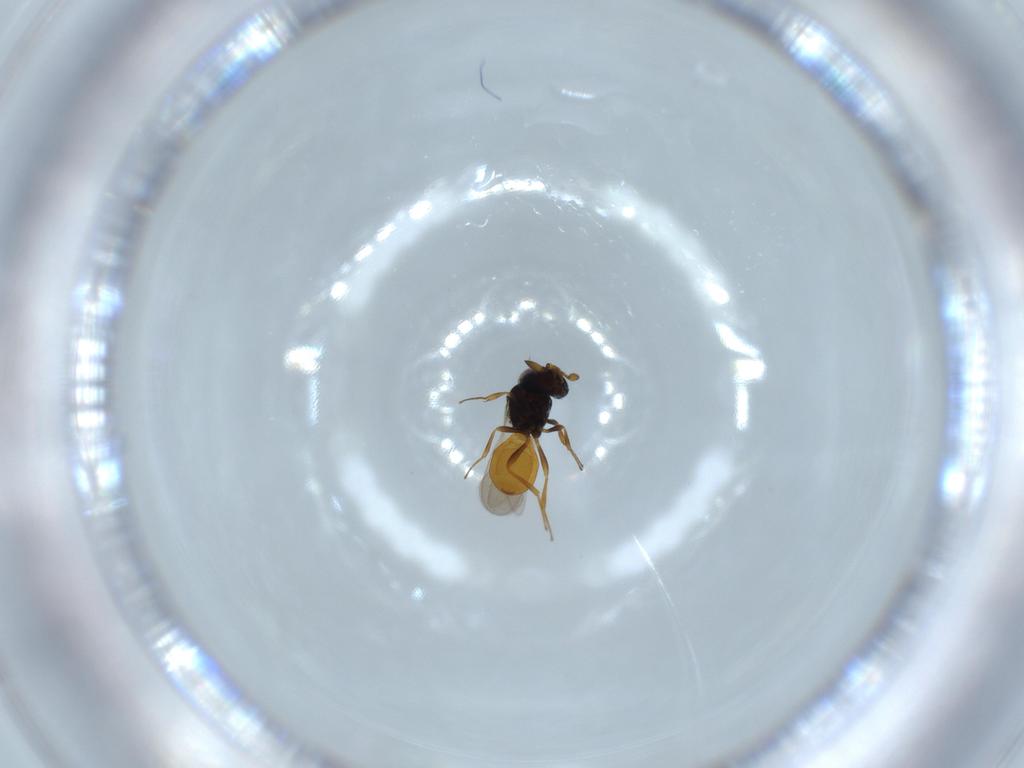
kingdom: Animalia
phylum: Arthropoda
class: Insecta
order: Hymenoptera
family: Scelionidae
